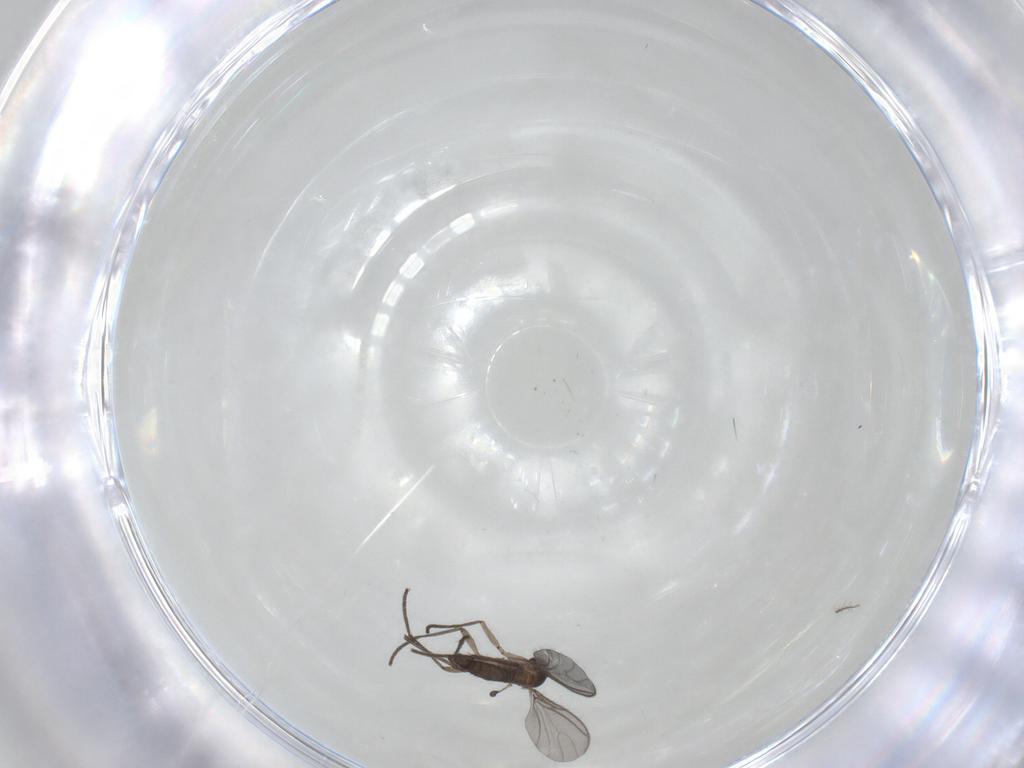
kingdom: Animalia
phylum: Arthropoda
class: Insecta
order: Diptera
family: Sciaridae
